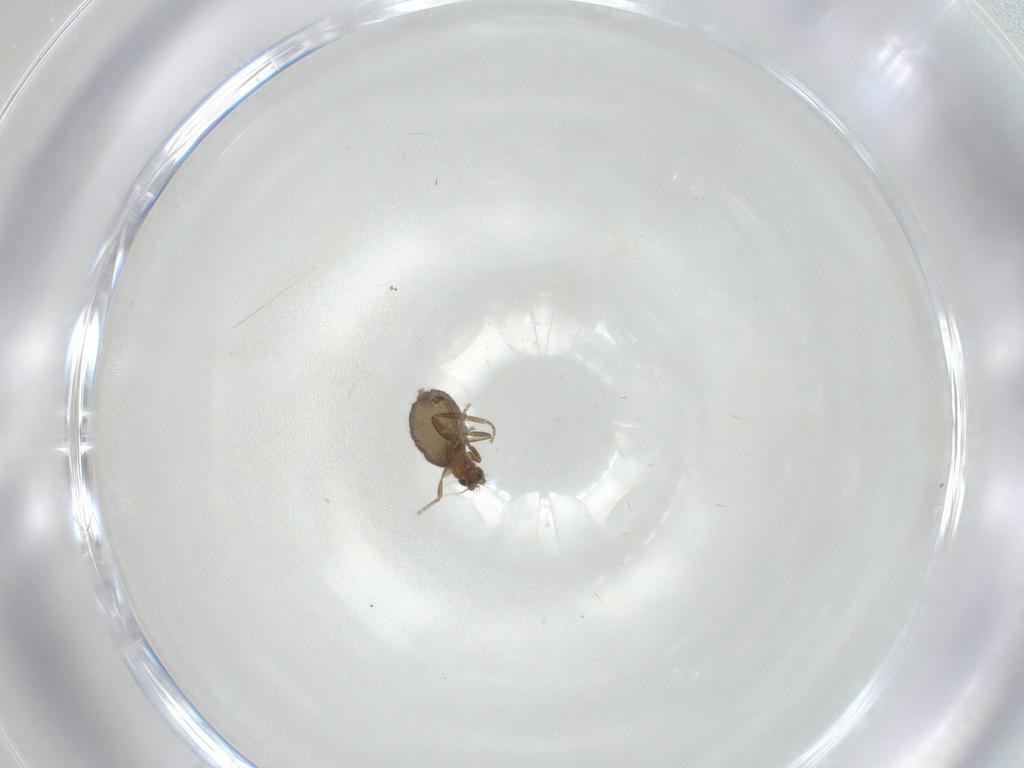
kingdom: Animalia
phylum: Arthropoda
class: Insecta
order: Diptera
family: Phoridae
